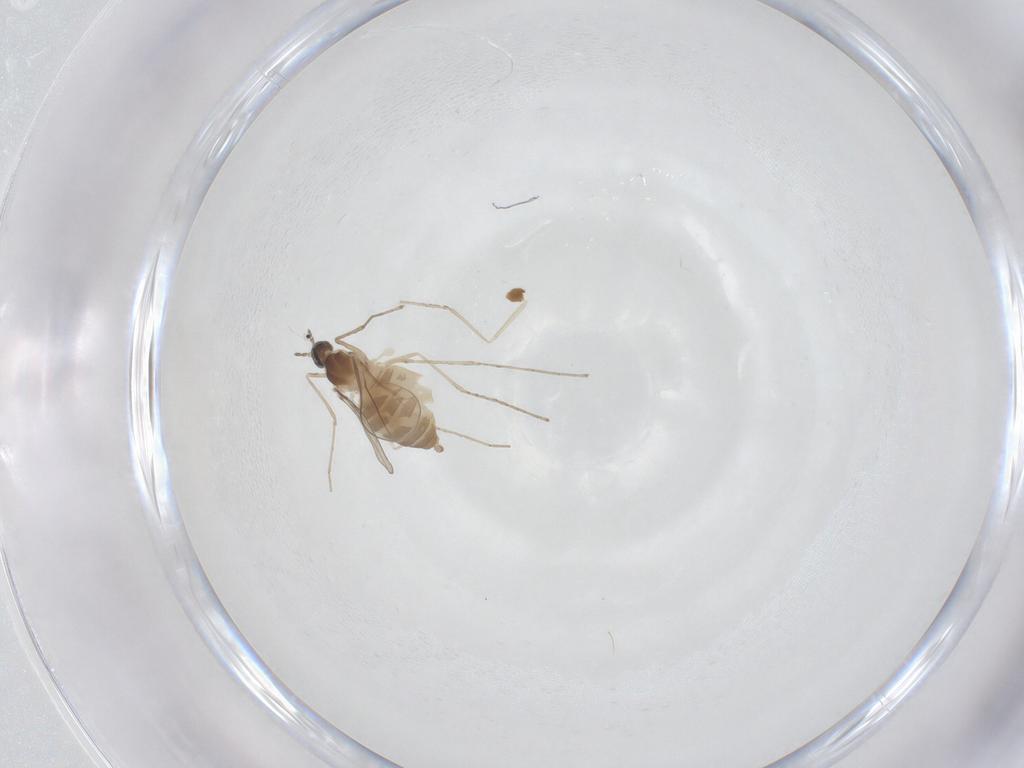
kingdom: Animalia
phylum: Arthropoda
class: Insecta
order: Diptera
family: Cecidomyiidae
